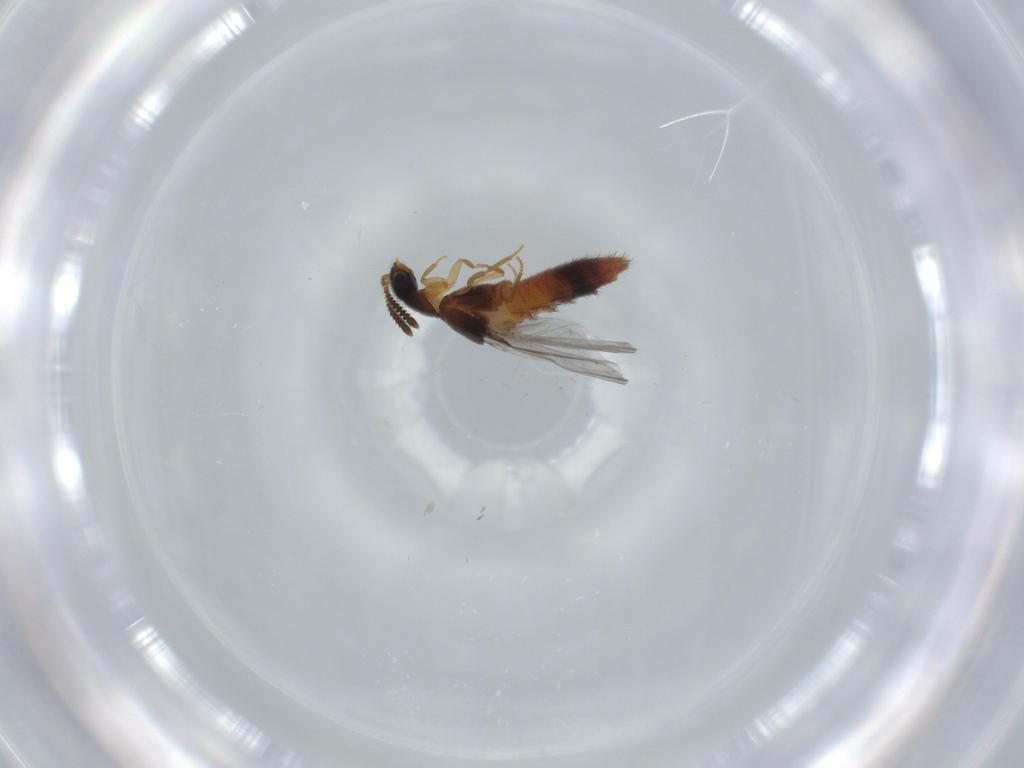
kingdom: Animalia
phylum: Arthropoda
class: Insecta
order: Coleoptera
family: Staphylinidae
